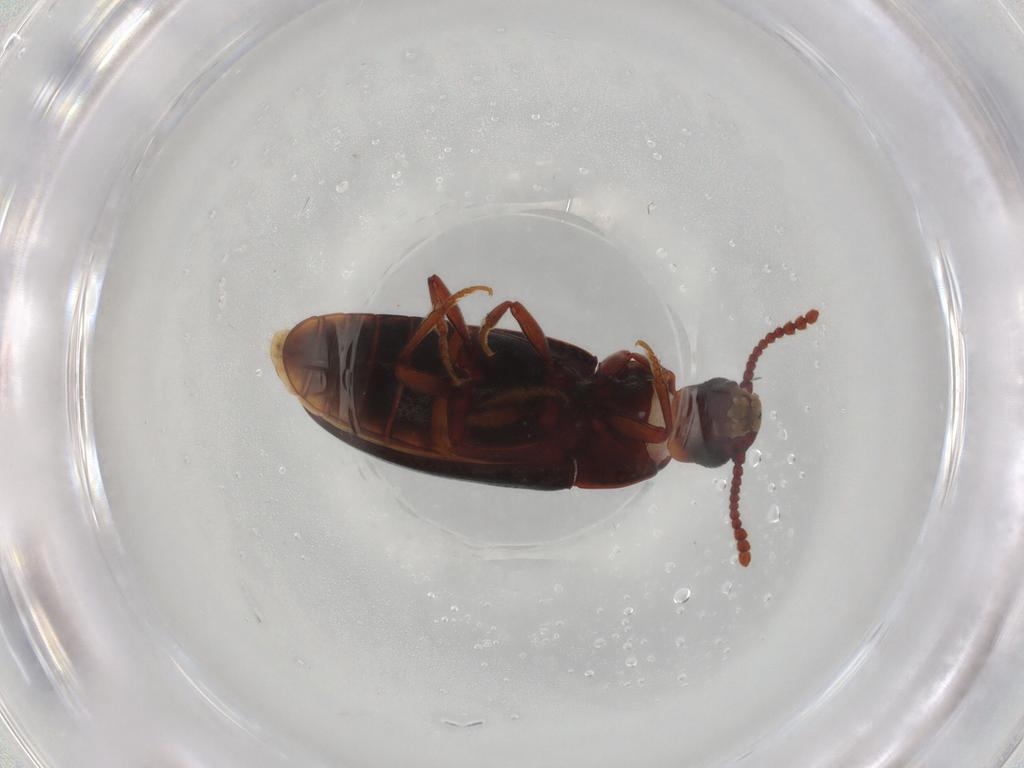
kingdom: Animalia
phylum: Arthropoda
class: Insecta
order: Coleoptera
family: Erotylidae
